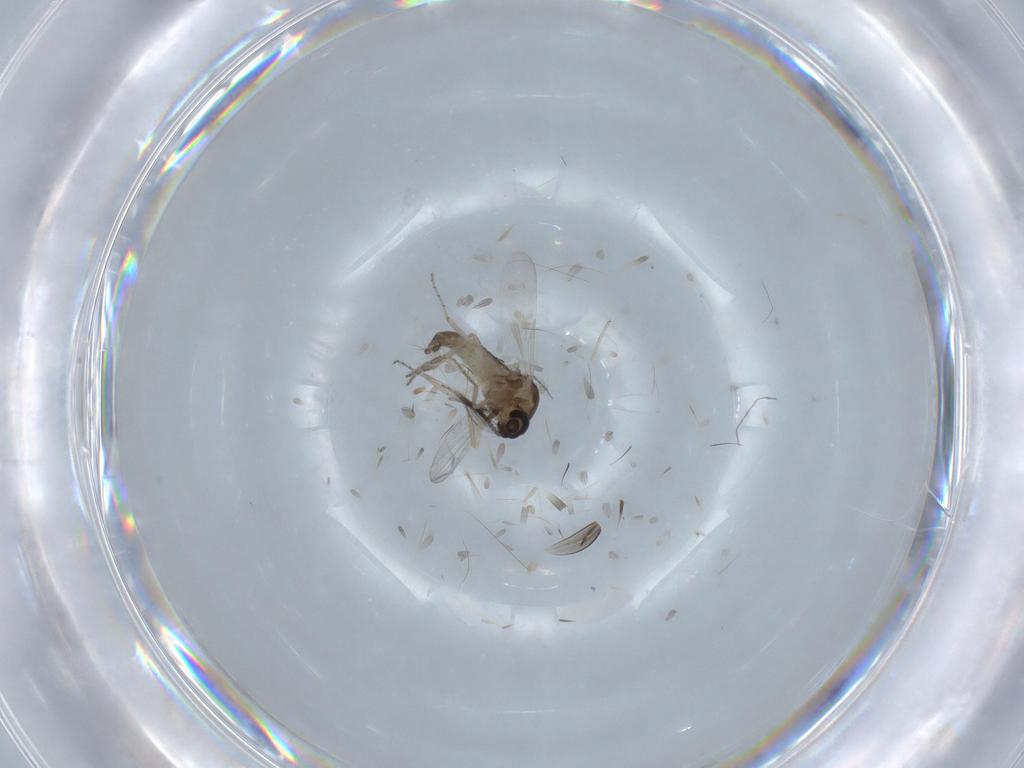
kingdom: Animalia
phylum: Arthropoda
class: Insecta
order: Diptera
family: Ceratopogonidae
